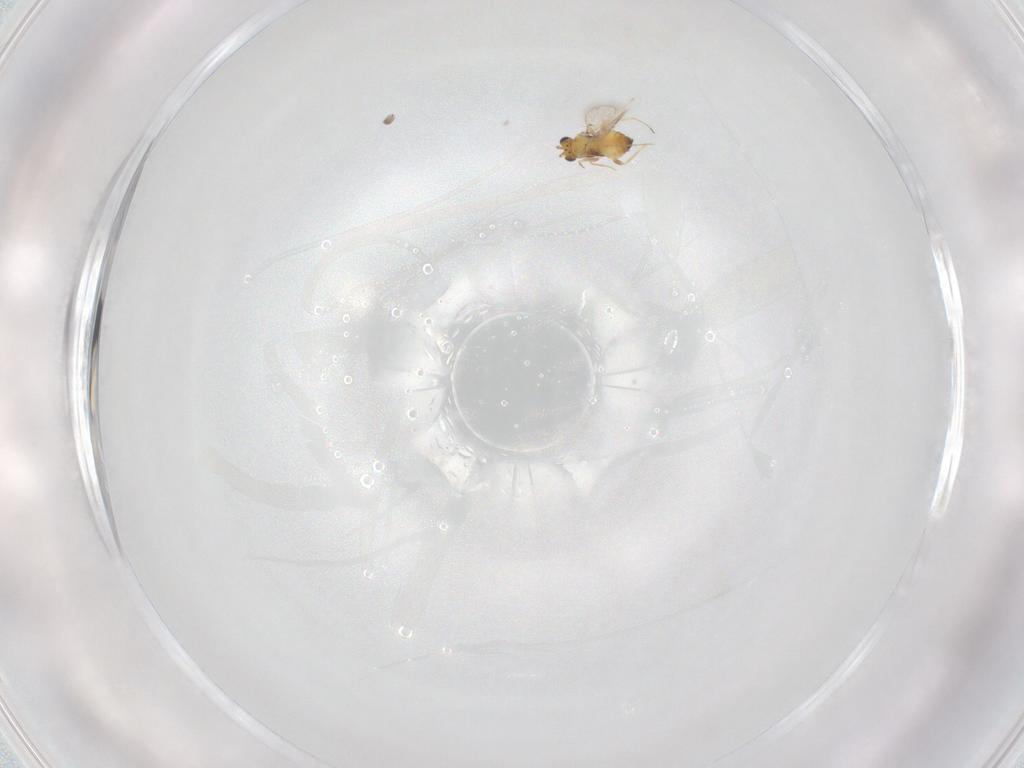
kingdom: Animalia
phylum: Arthropoda
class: Insecta
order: Hymenoptera
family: Trichogrammatidae
